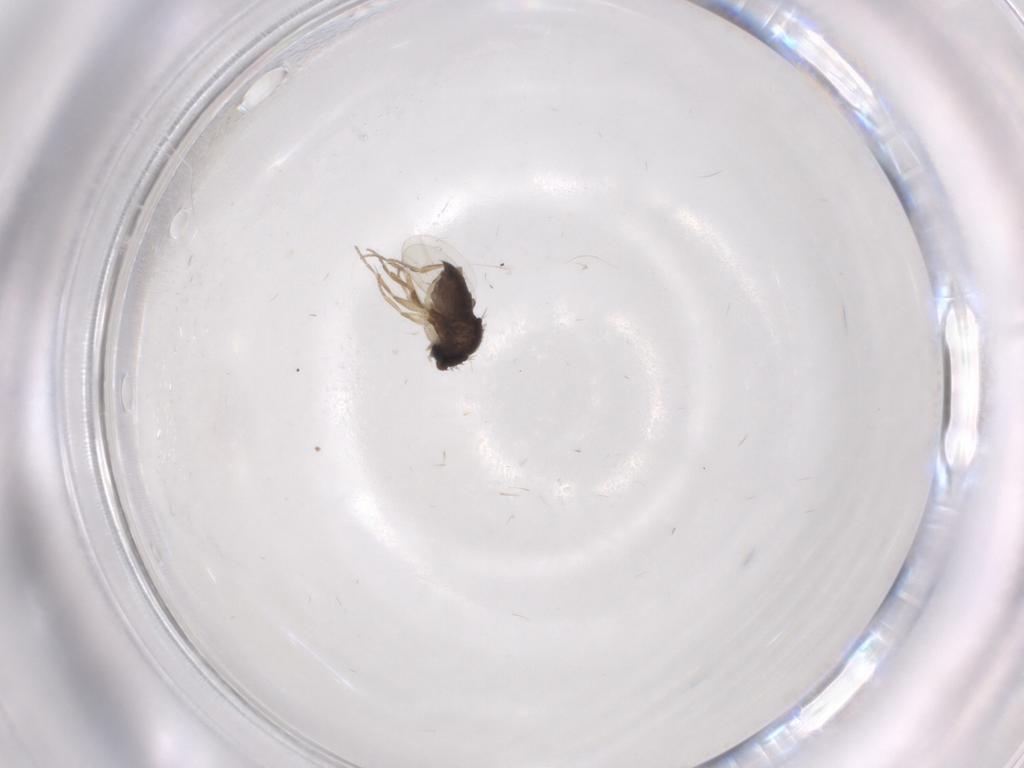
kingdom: Animalia
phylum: Arthropoda
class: Insecta
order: Diptera
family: Phoridae
